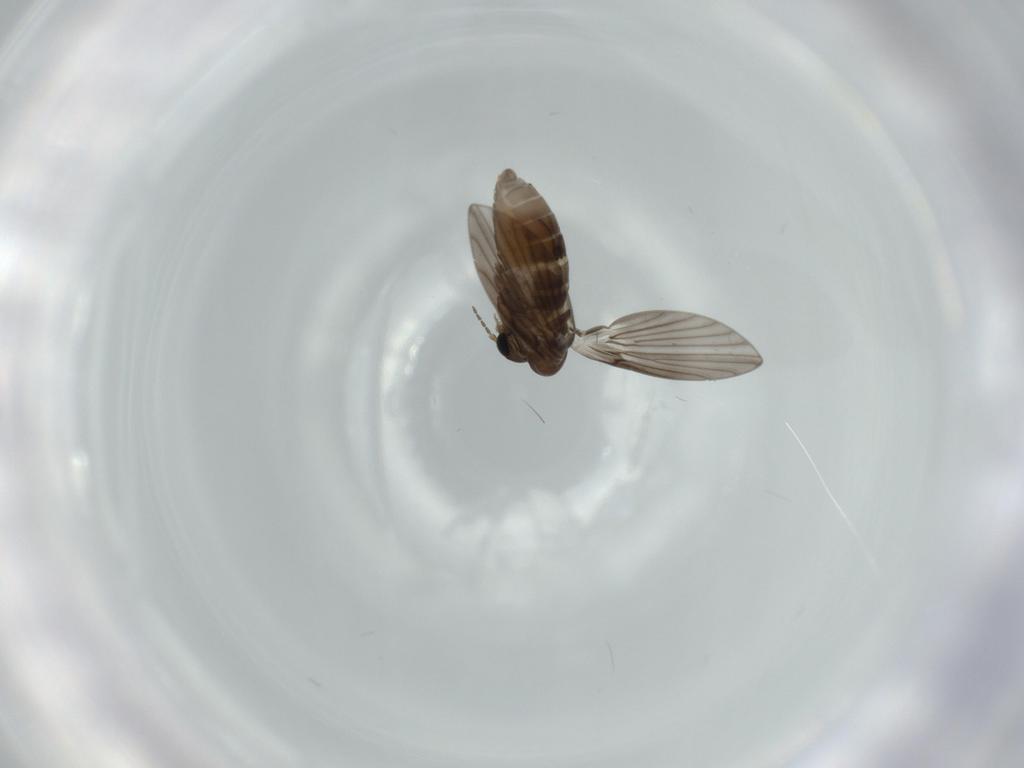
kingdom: Animalia
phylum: Arthropoda
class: Insecta
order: Diptera
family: Psychodidae
